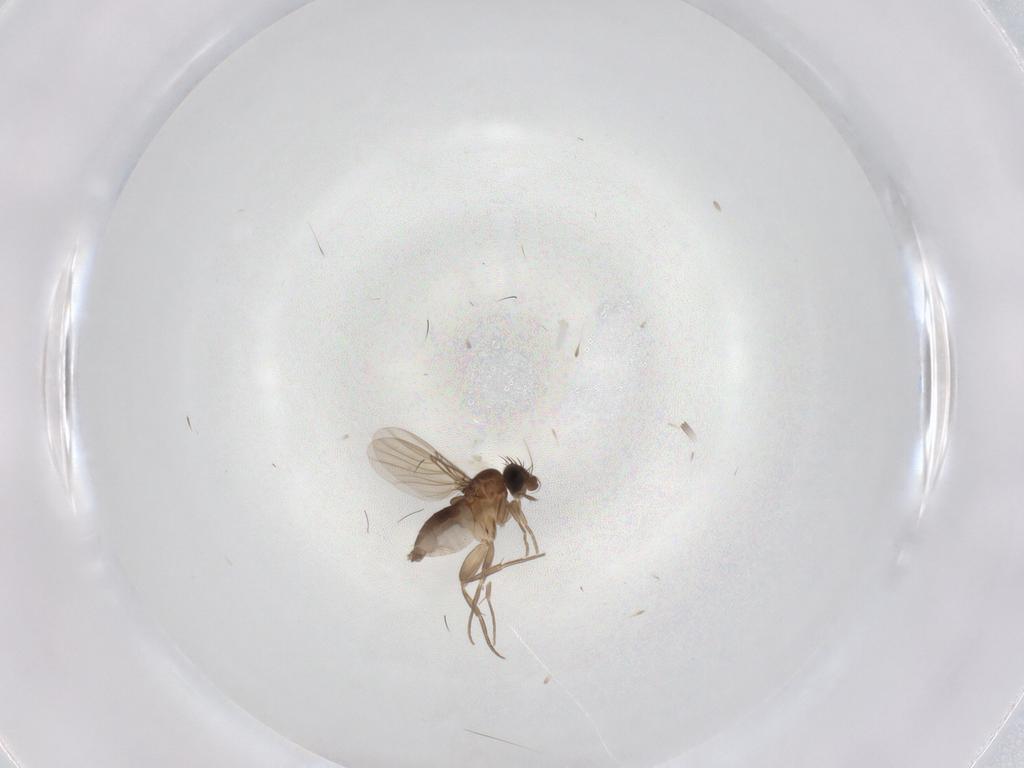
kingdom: Animalia
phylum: Arthropoda
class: Insecta
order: Diptera
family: Phoridae
